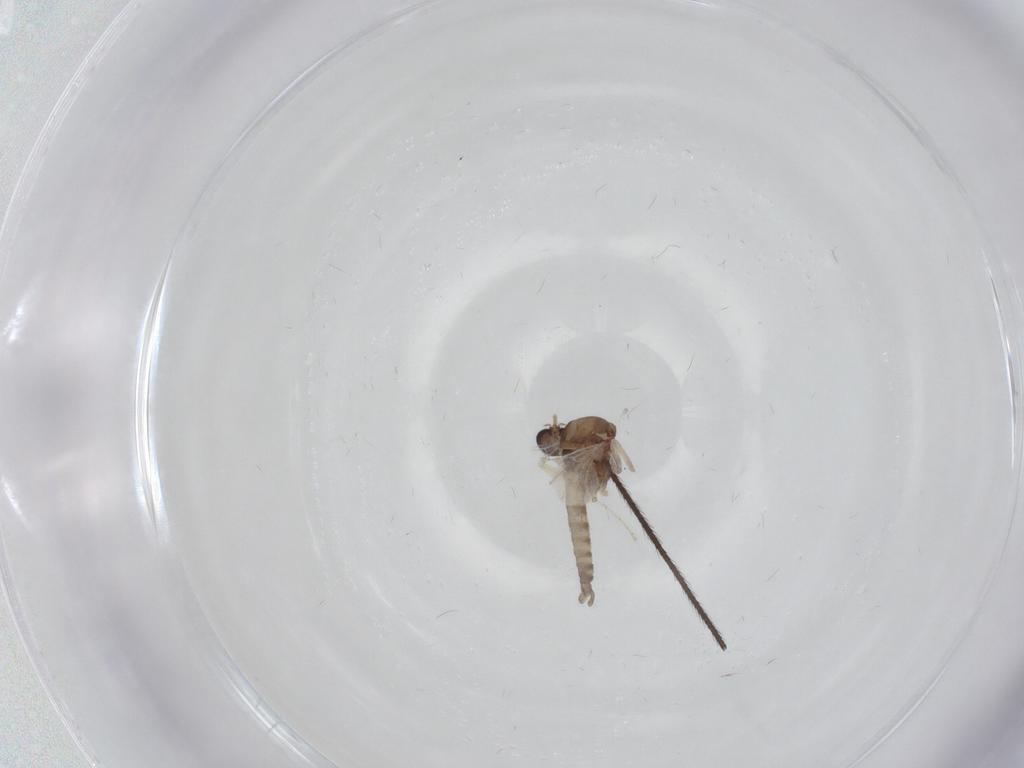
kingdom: Animalia
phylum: Arthropoda
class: Insecta
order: Diptera
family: Ceratopogonidae
